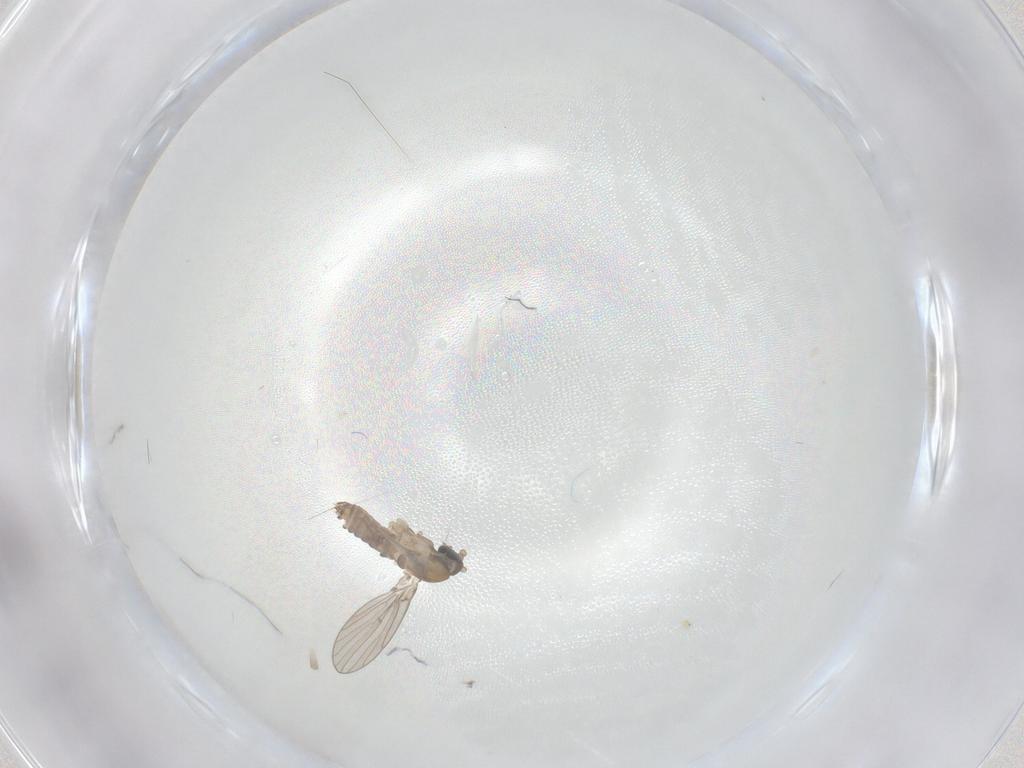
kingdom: Animalia
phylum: Arthropoda
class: Insecta
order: Diptera
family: Psychodidae
